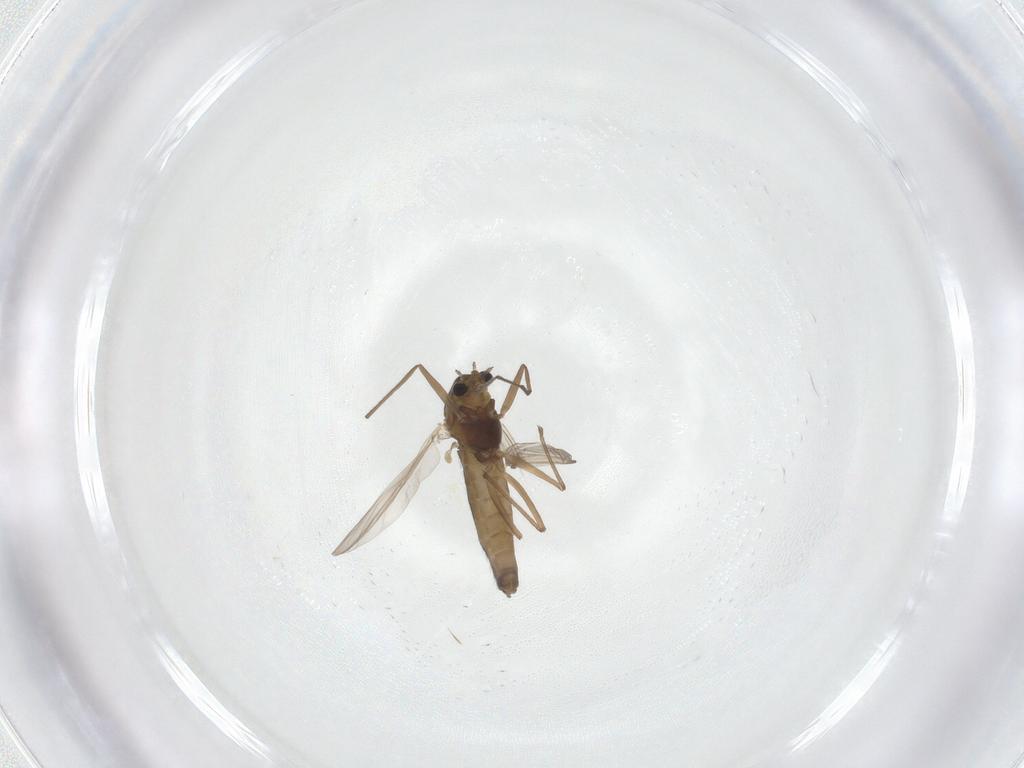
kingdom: Animalia
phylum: Arthropoda
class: Insecta
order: Diptera
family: Chironomidae
